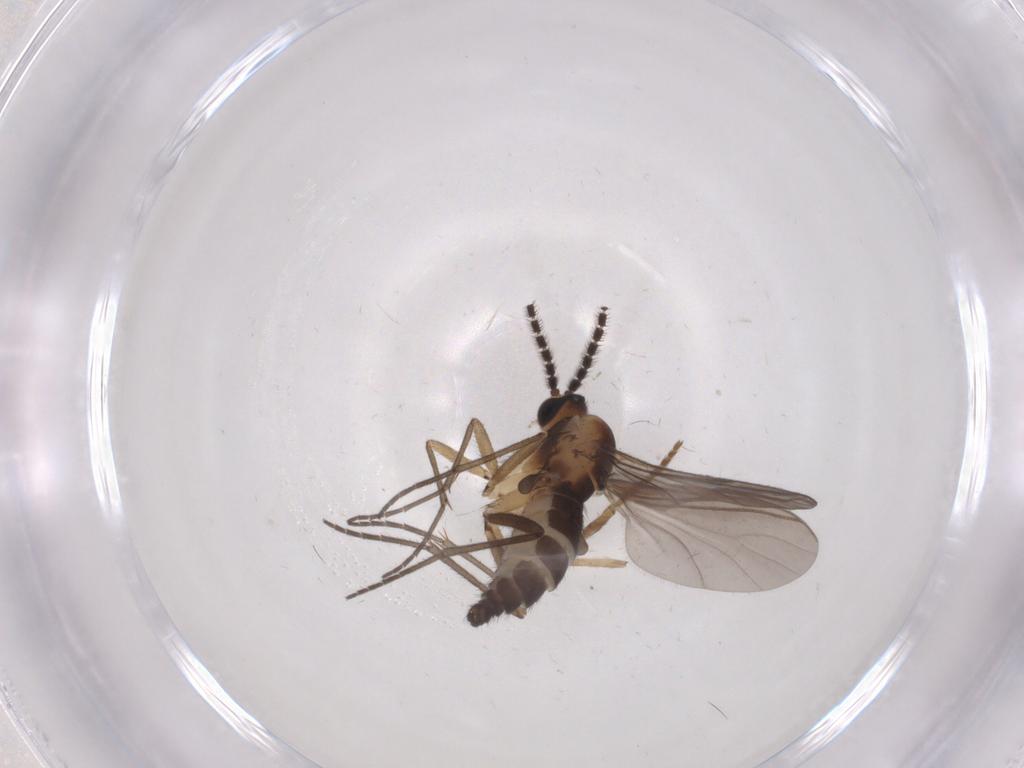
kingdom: Animalia
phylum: Arthropoda
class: Insecta
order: Diptera
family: Sciaridae
